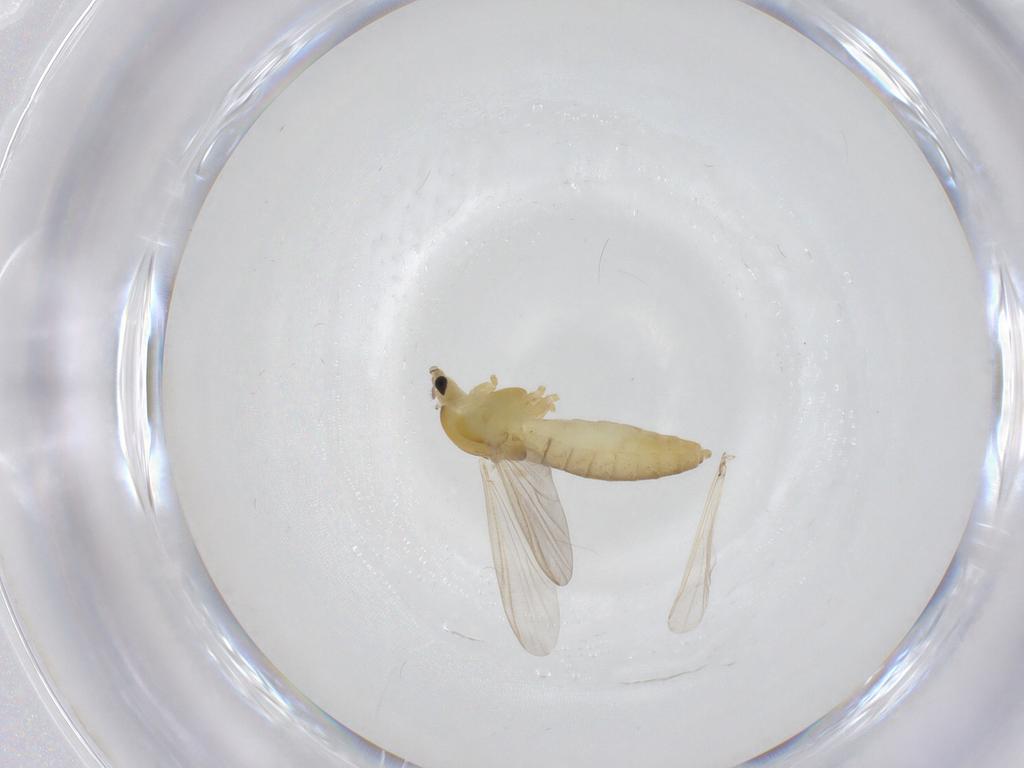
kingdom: Animalia
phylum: Arthropoda
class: Insecta
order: Diptera
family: Chironomidae
